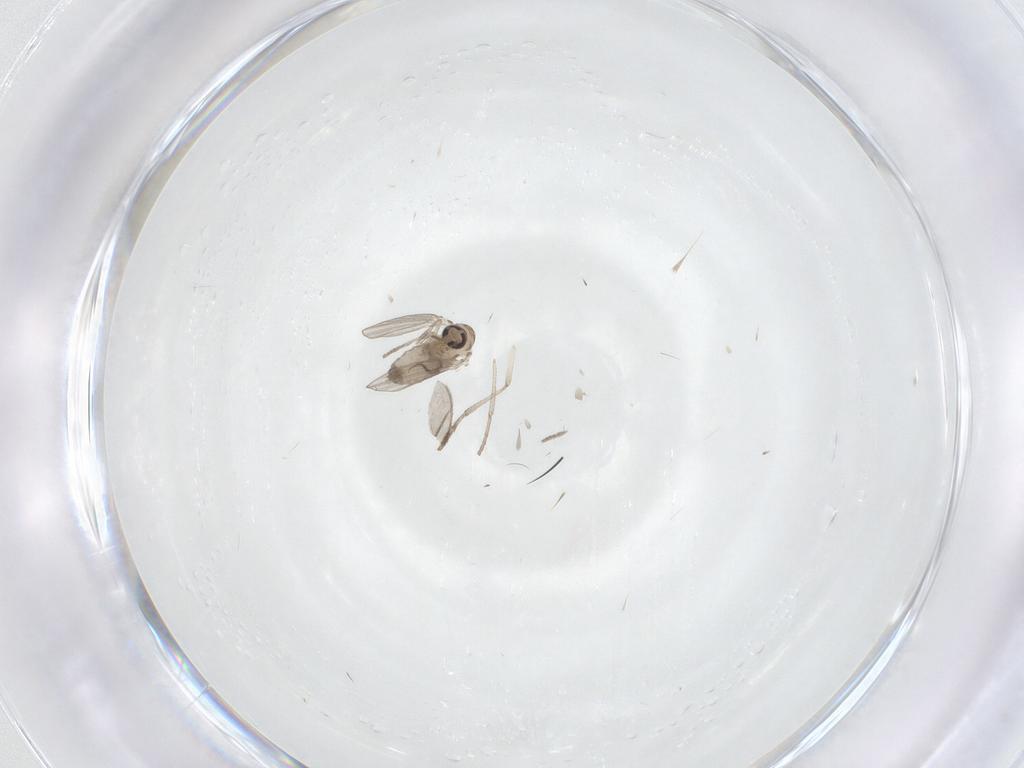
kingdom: Animalia
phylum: Arthropoda
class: Insecta
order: Diptera
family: Psychodidae
